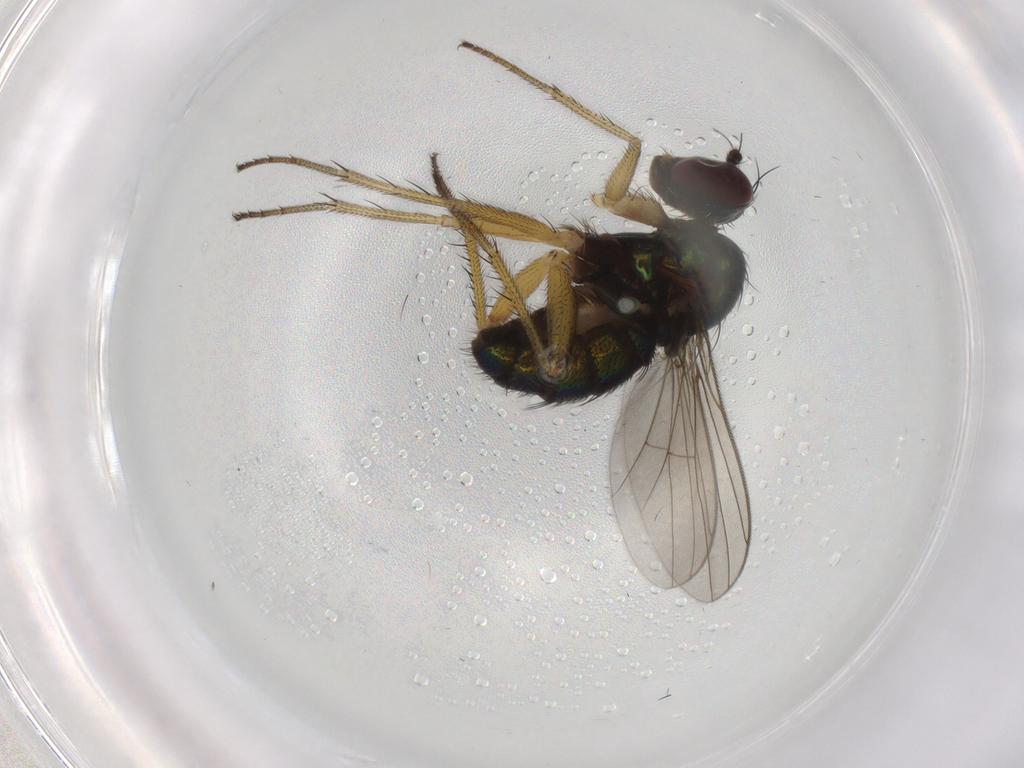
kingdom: Animalia
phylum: Arthropoda
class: Insecta
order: Diptera
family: Dolichopodidae
